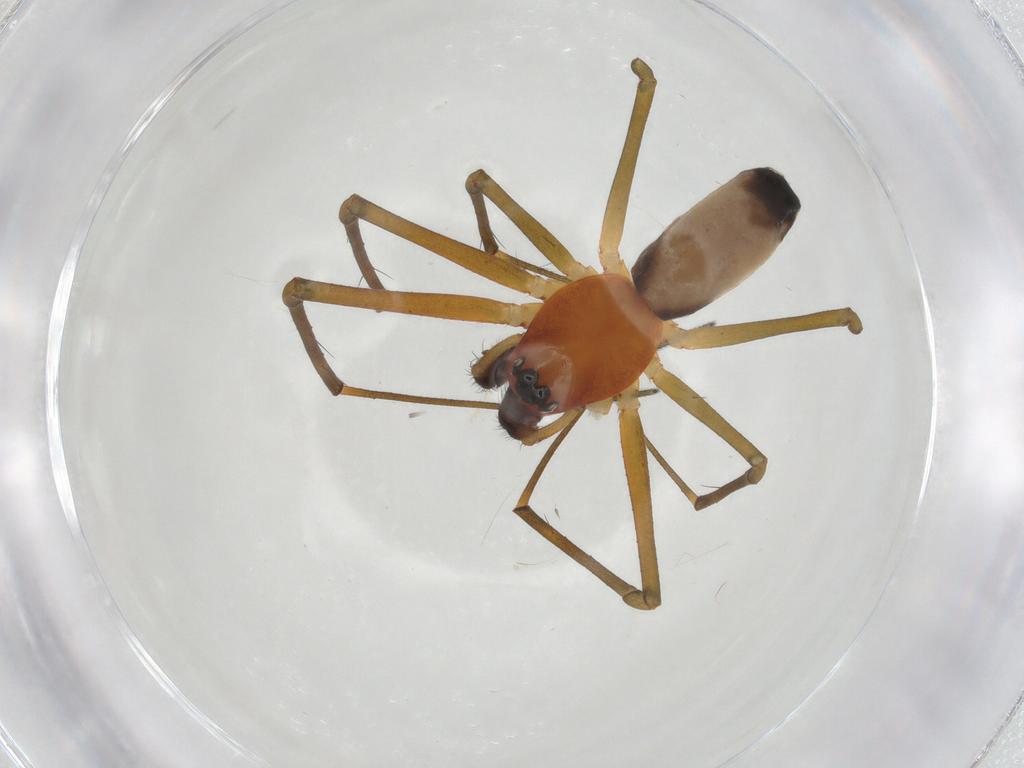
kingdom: Animalia
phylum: Arthropoda
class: Arachnida
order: Araneae
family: Linyphiidae
